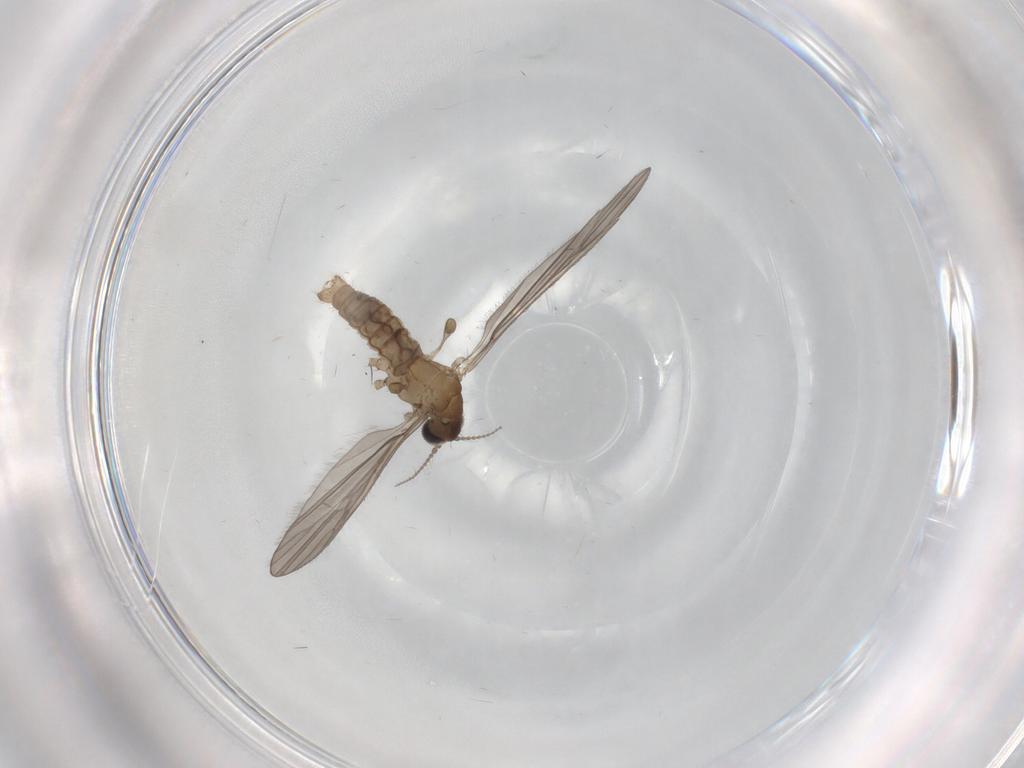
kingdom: Animalia
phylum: Arthropoda
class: Insecta
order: Diptera
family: Limoniidae
